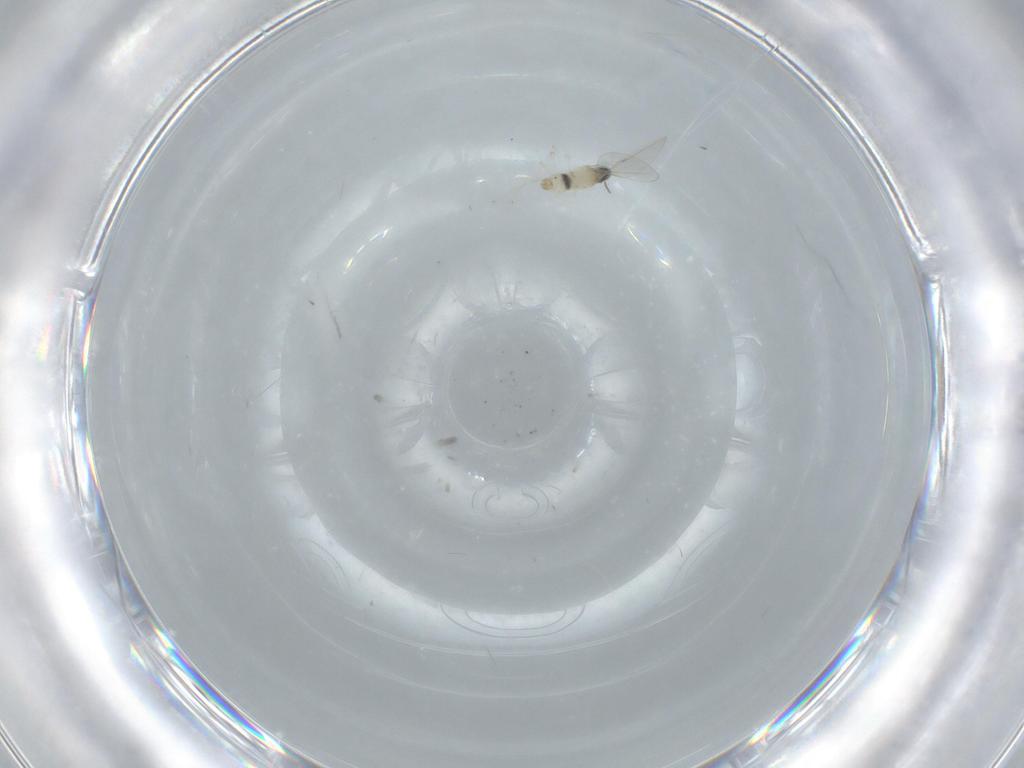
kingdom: Animalia
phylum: Arthropoda
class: Insecta
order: Diptera
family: Cecidomyiidae
